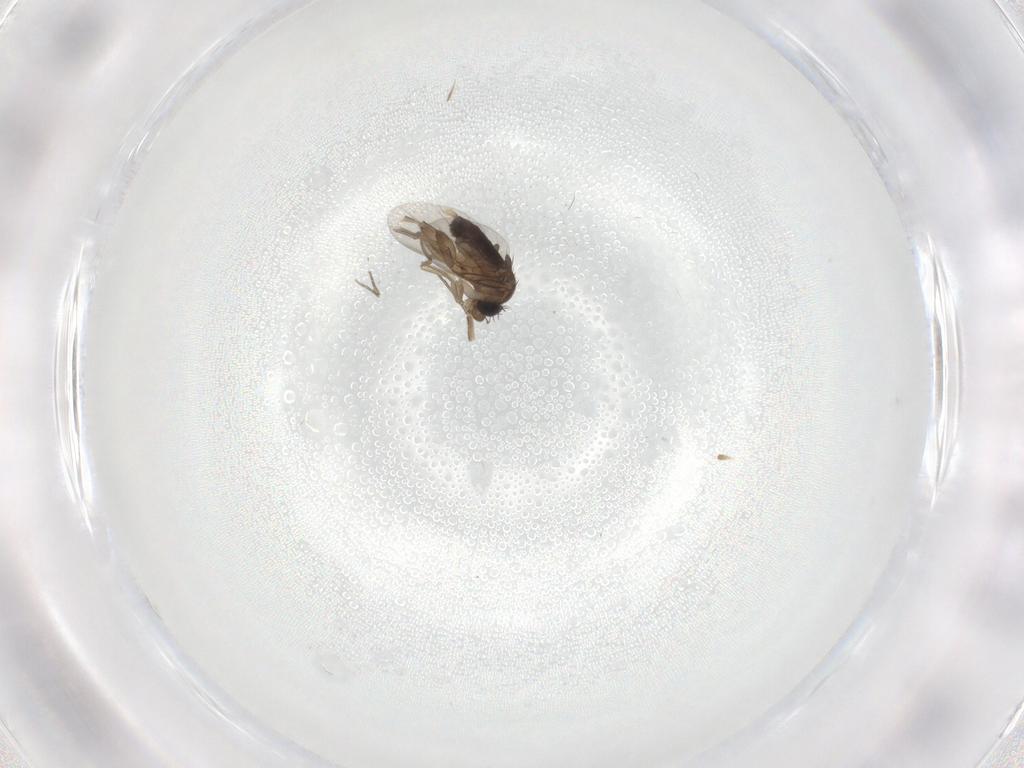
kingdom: Animalia
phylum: Arthropoda
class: Insecta
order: Diptera
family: Phoridae
